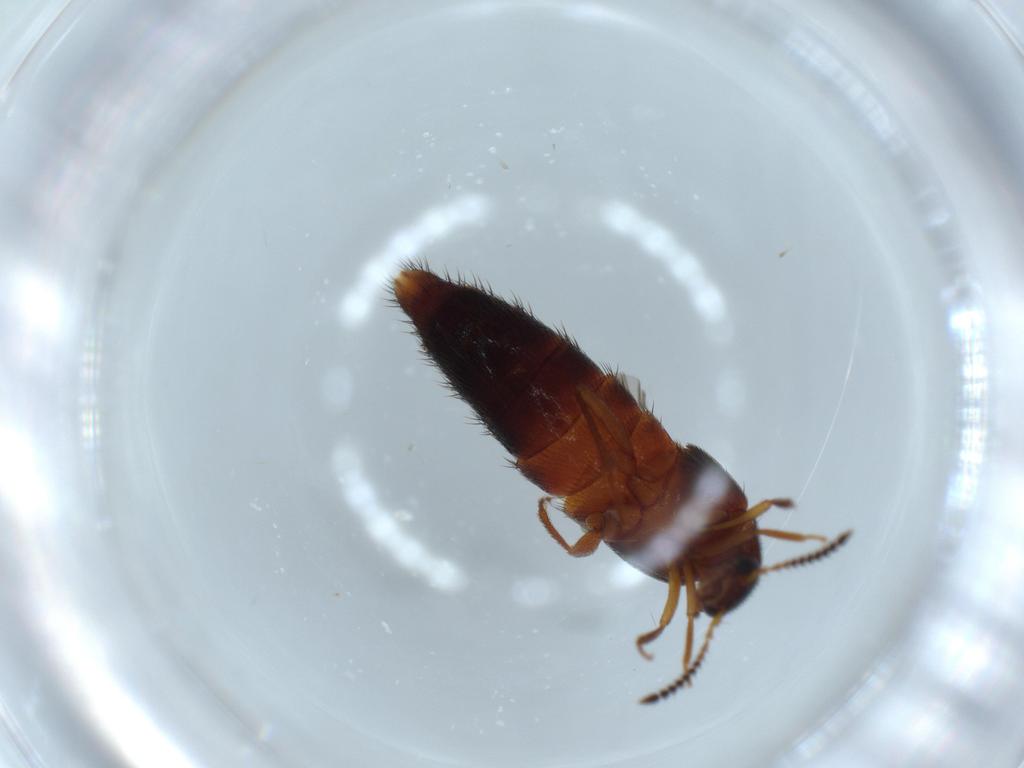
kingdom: Animalia
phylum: Arthropoda
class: Insecta
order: Coleoptera
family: Staphylinidae
